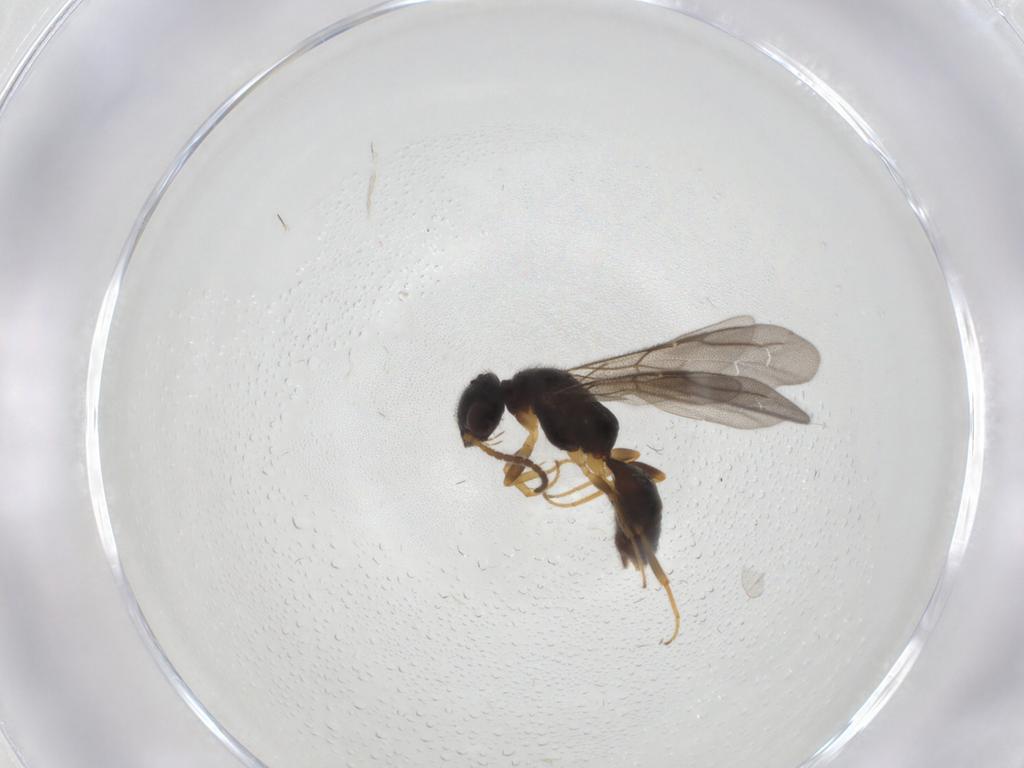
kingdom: Animalia
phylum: Arthropoda
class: Insecta
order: Hymenoptera
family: Bethylidae
